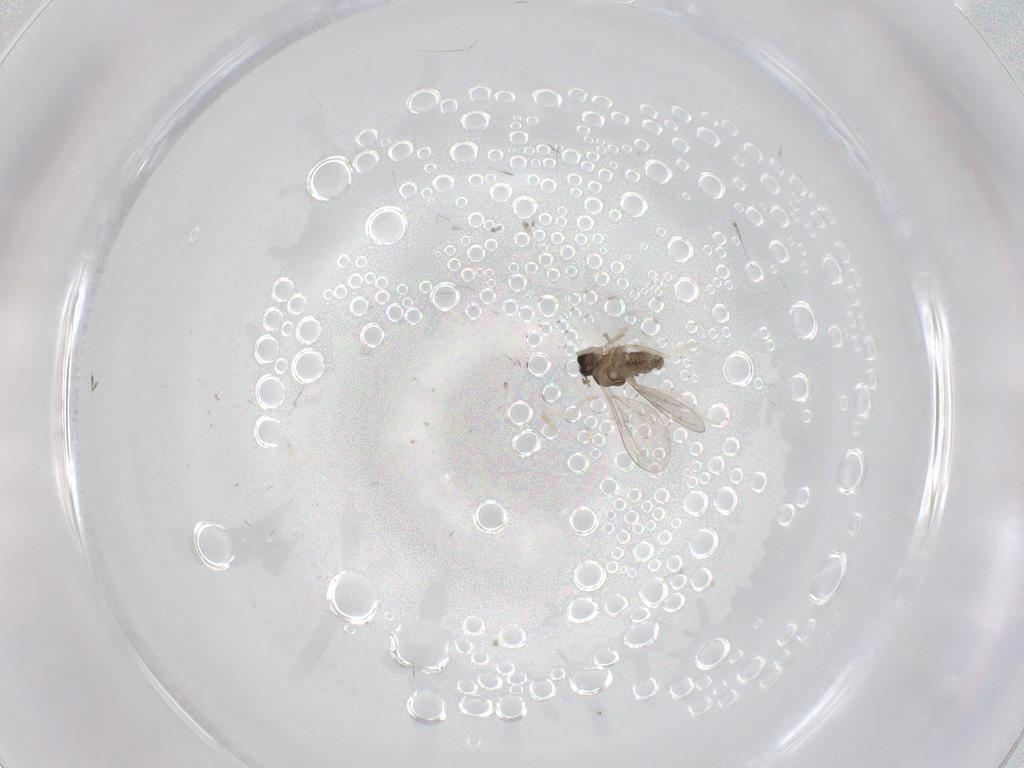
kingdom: Animalia
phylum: Arthropoda
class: Insecta
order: Diptera
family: Cecidomyiidae
